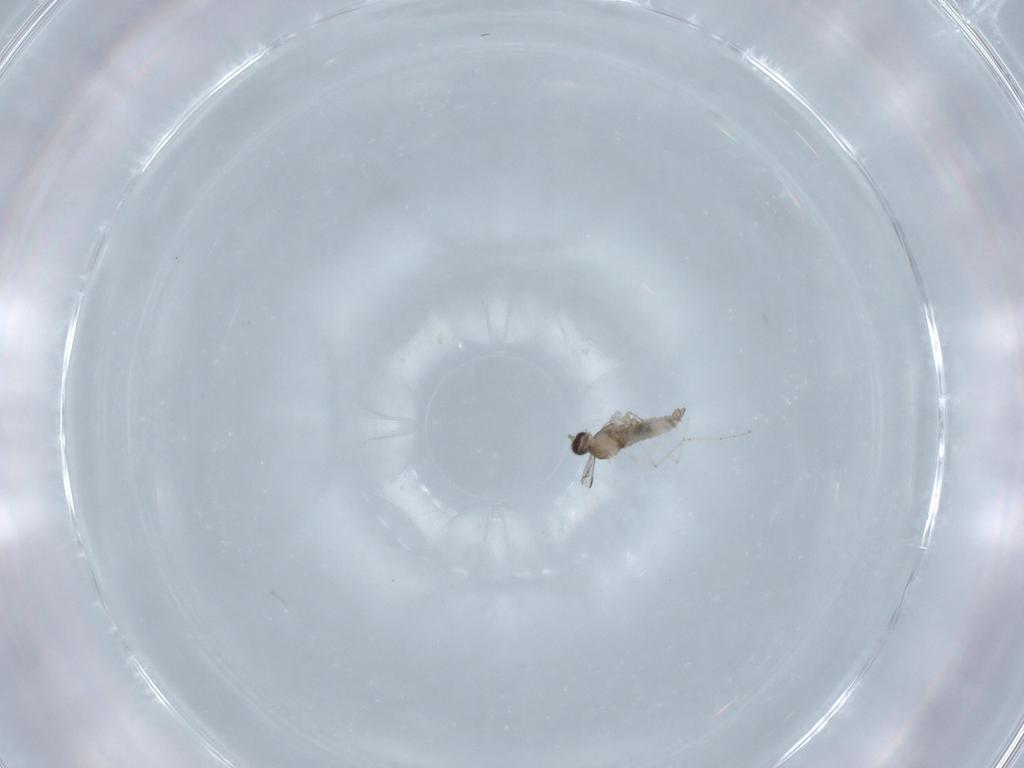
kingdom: Animalia
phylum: Arthropoda
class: Insecta
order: Diptera
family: Cecidomyiidae
